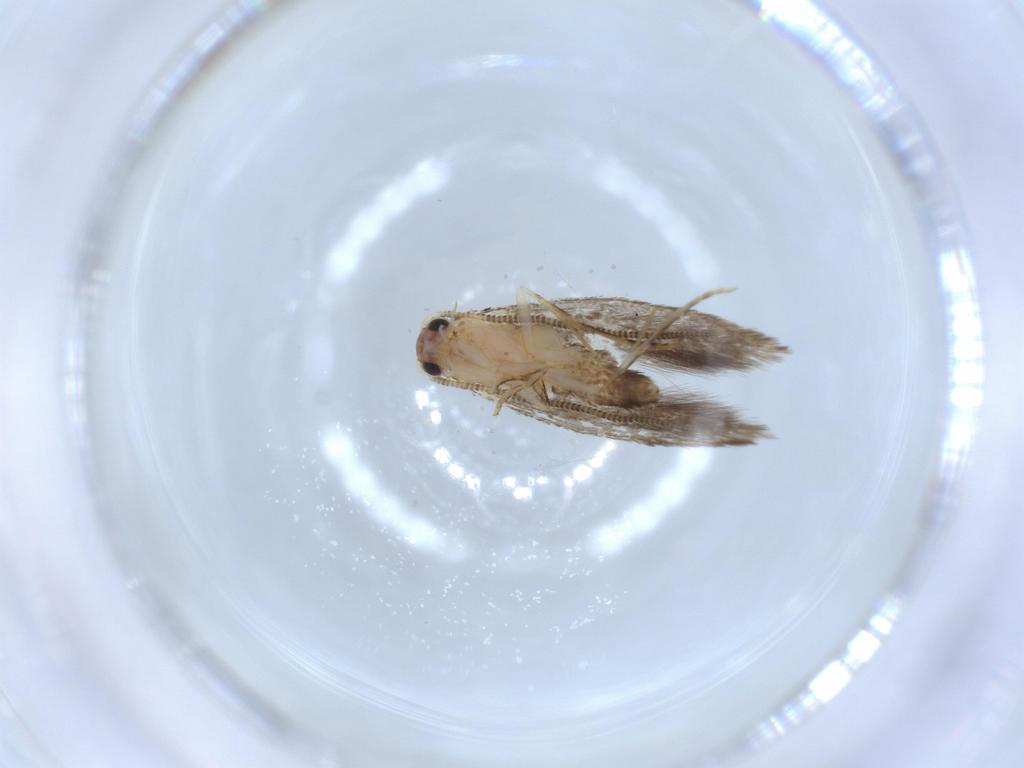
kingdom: Animalia
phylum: Arthropoda
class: Insecta
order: Lepidoptera
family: Tineidae
